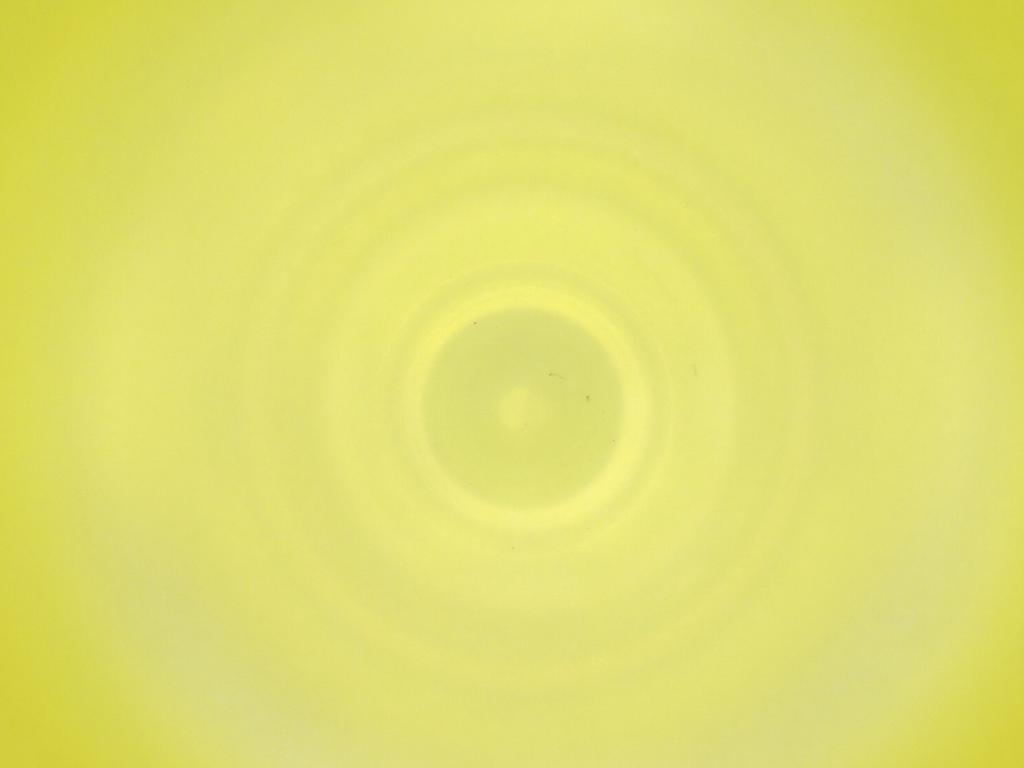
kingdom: Animalia
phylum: Arthropoda
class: Insecta
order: Diptera
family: Cecidomyiidae
